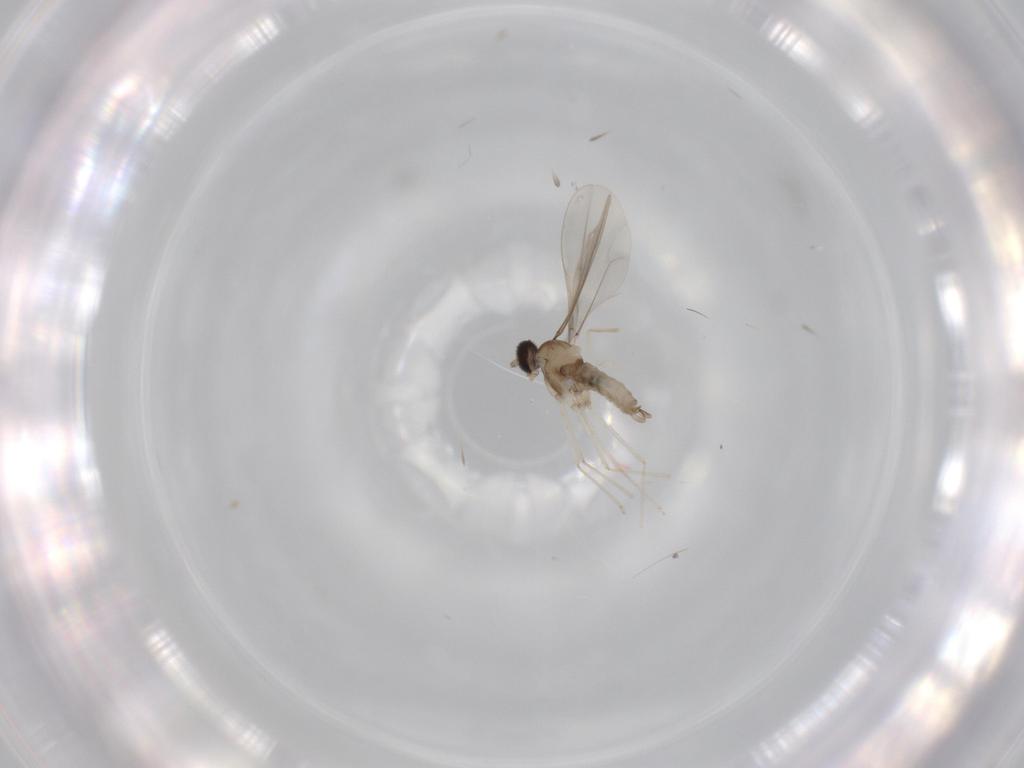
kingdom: Animalia
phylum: Arthropoda
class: Insecta
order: Diptera
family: Cecidomyiidae
